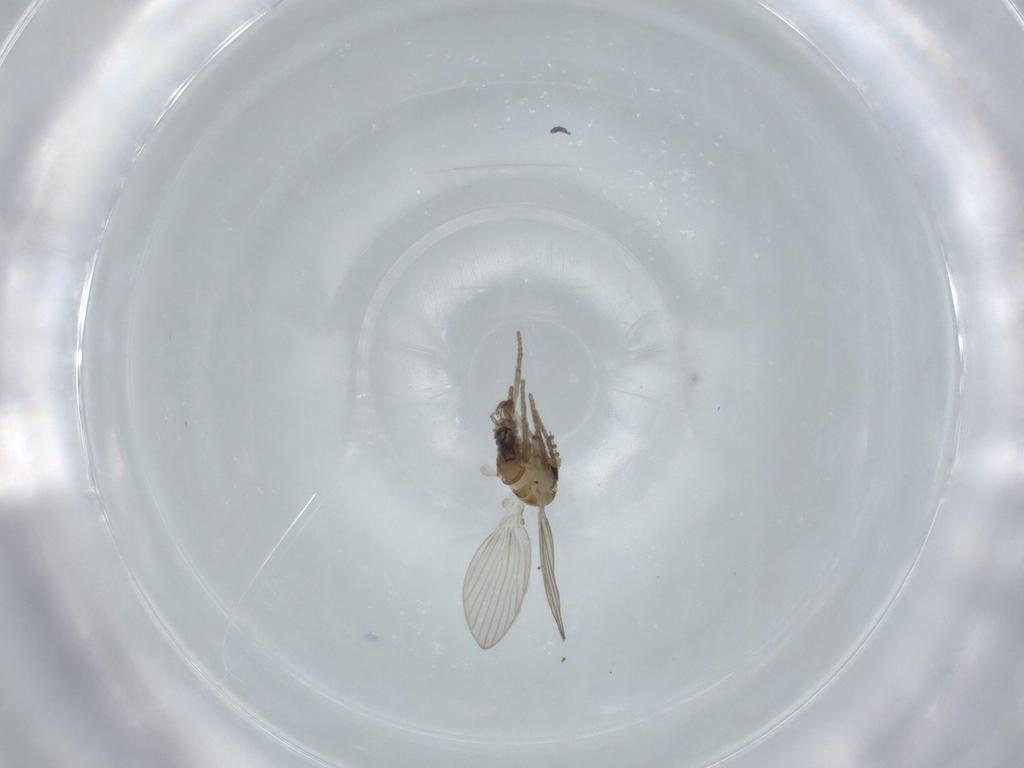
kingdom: Animalia
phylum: Arthropoda
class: Insecta
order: Diptera
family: Psychodidae
